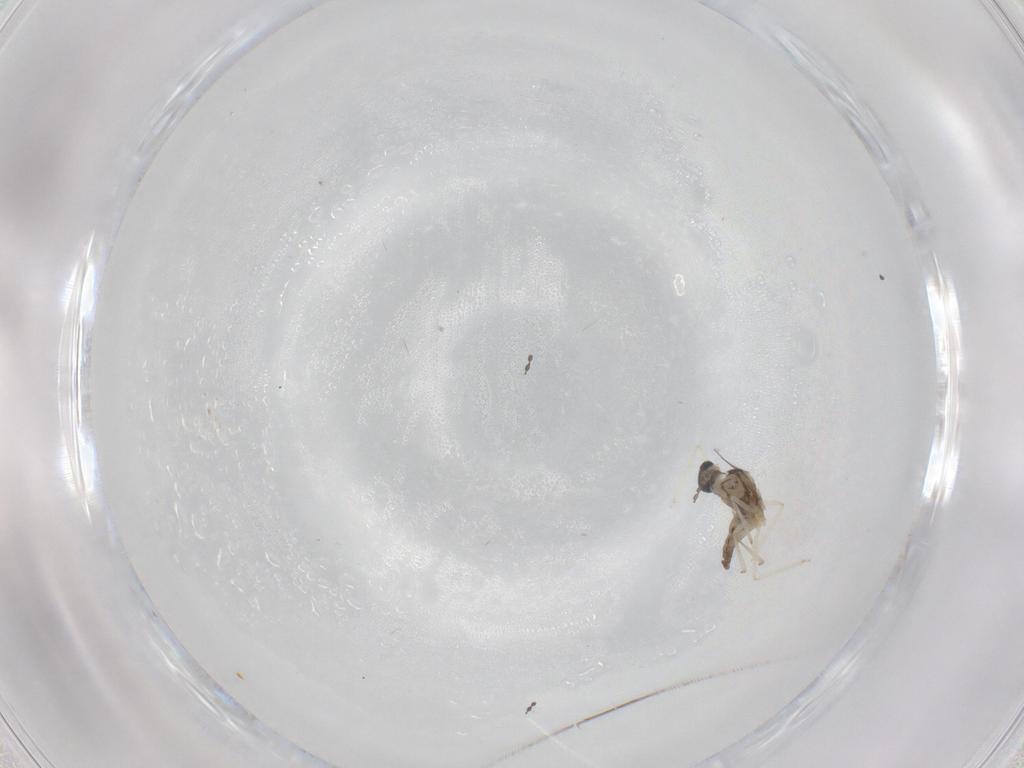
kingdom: Animalia
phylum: Arthropoda
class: Insecta
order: Diptera
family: Cecidomyiidae
